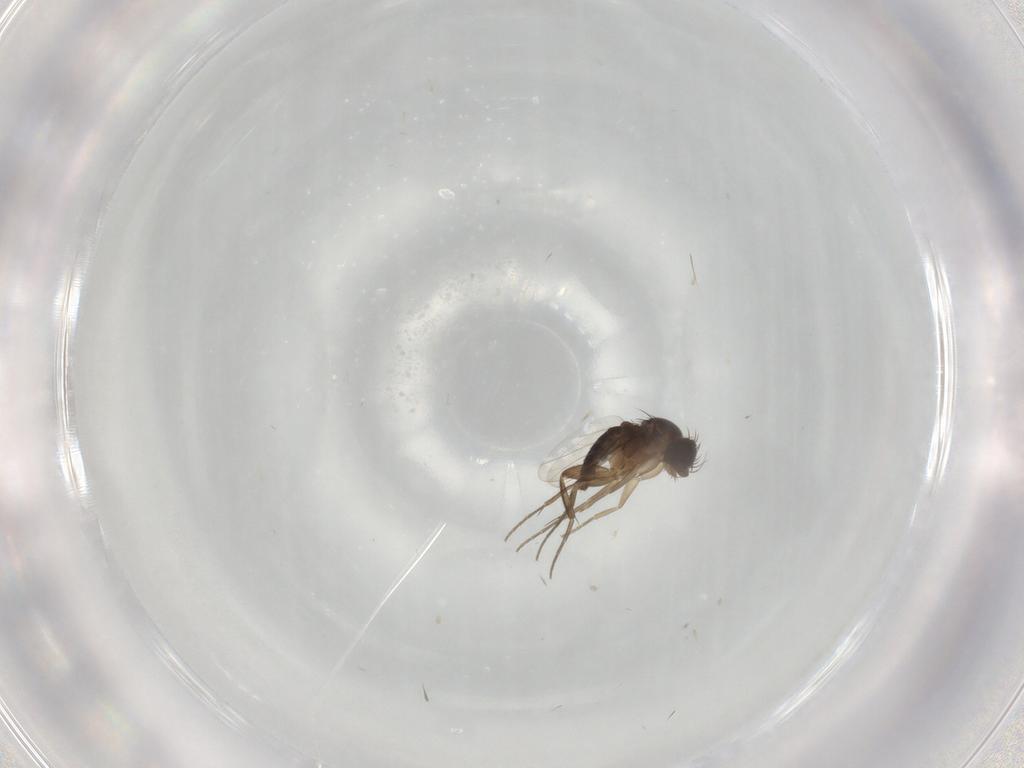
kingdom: Animalia
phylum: Arthropoda
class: Insecta
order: Diptera
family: Phoridae
